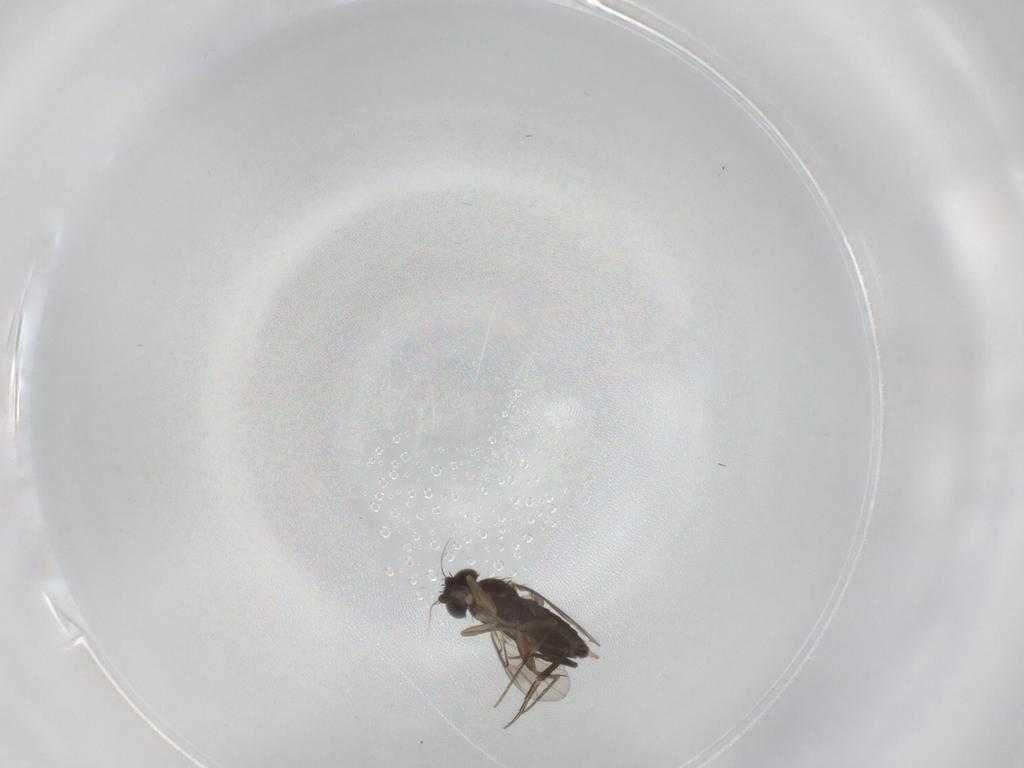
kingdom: Animalia
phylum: Arthropoda
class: Insecta
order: Diptera
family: Phoridae
